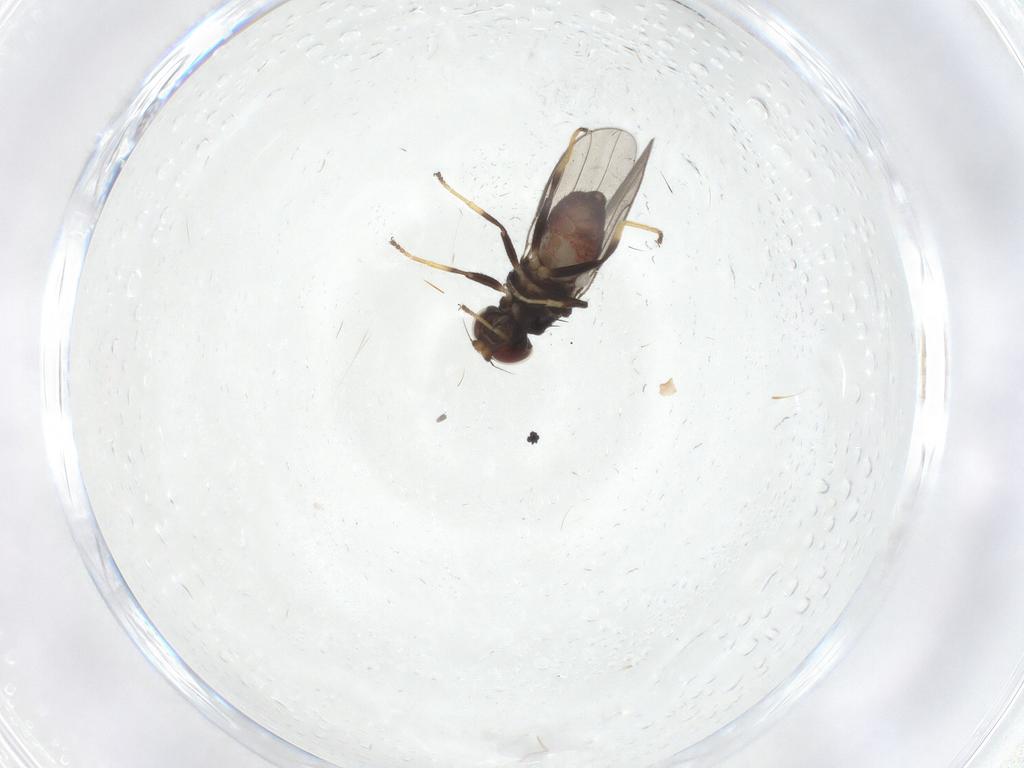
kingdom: Animalia
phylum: Arthropoda
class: Insecta
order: Diptera
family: Chloropidae
